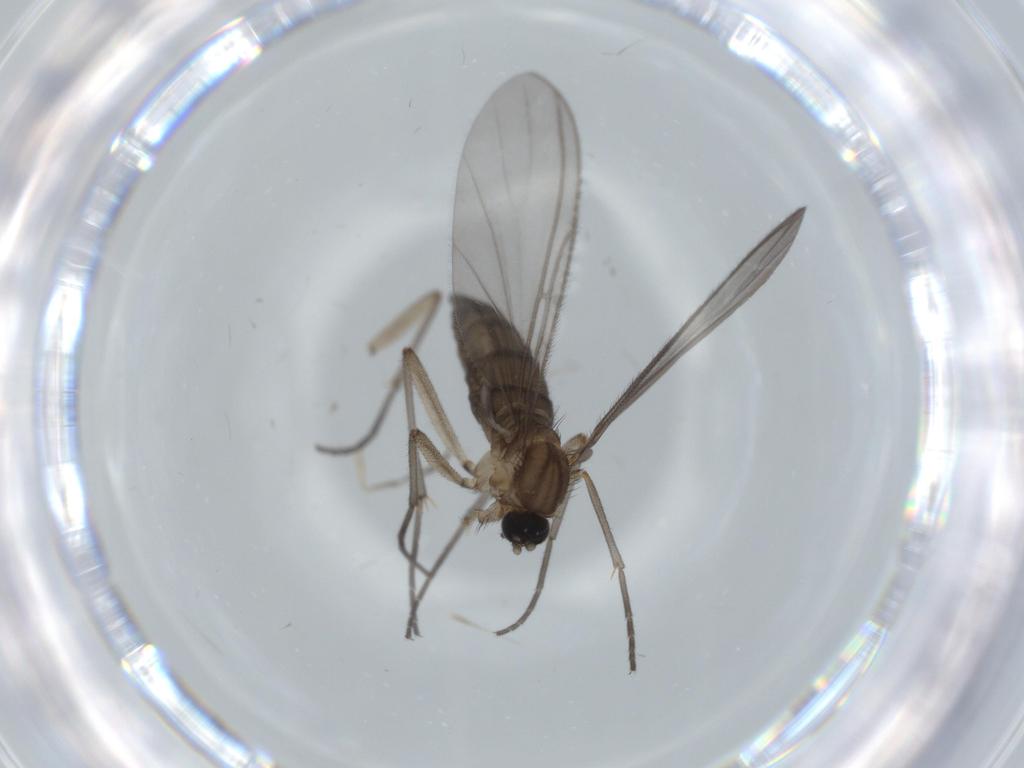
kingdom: Animalia
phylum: Arthropoda
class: Insecta
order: Diptera
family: Sciaridae
